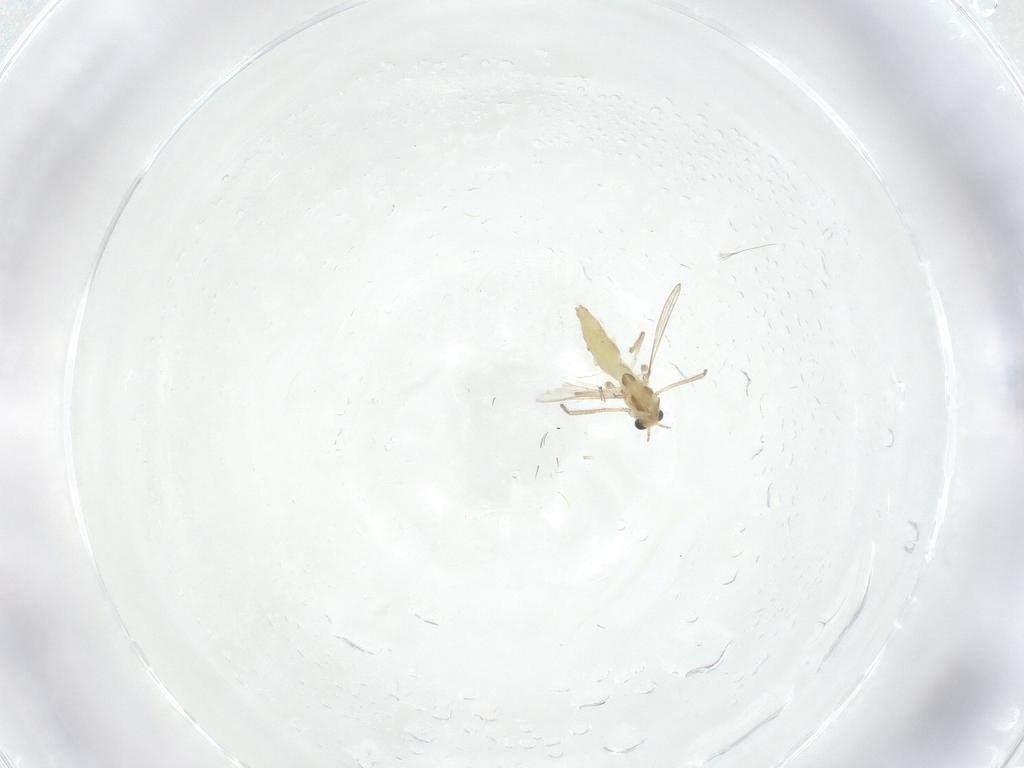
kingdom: Animalia
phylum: Arthropoda
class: Insecta
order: Diptera
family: Chironomidae
